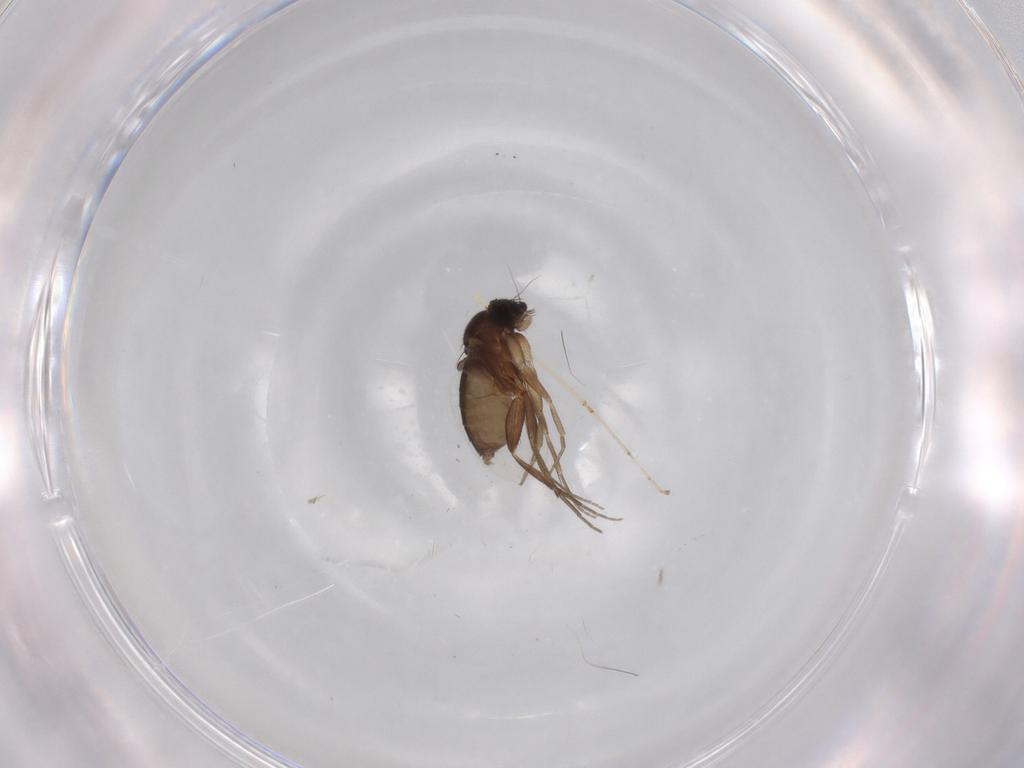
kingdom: Animalia
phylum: Arthropoda
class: Insecta
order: Diptera
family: Phoridae
